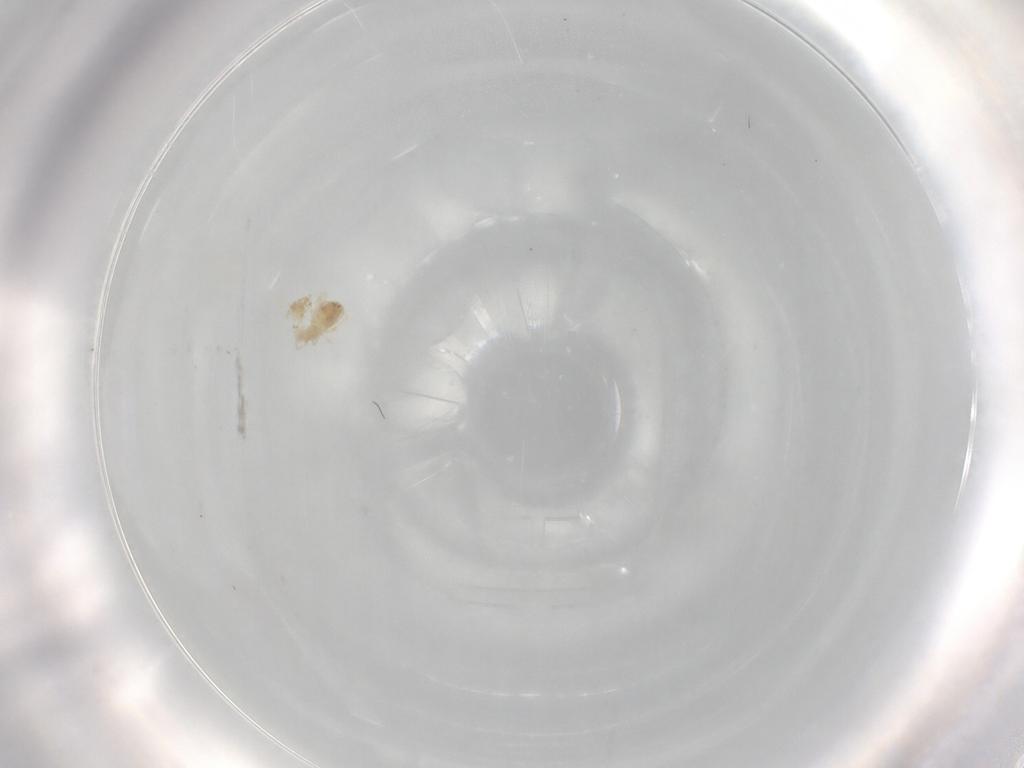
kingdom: Animalia
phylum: Arthropoda
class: Arachnida
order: Trombidiformes
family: Eupodidae
